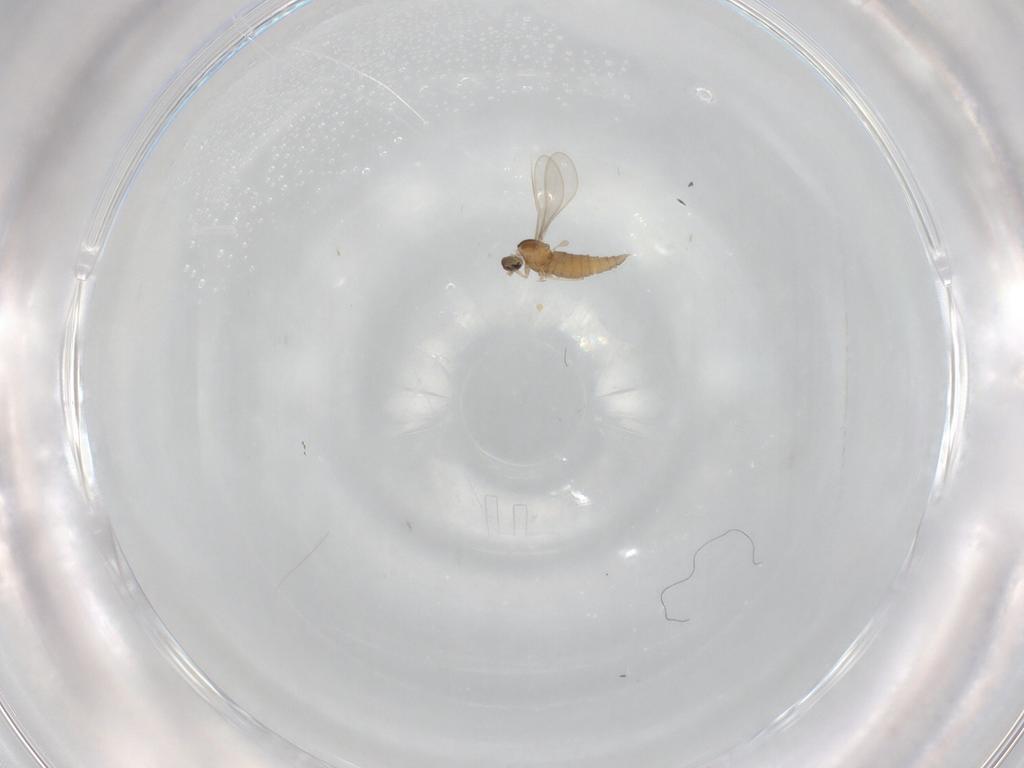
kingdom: Animalia
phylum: Arthropoda
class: Insecta
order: Diptera
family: Cecidomyiidae
